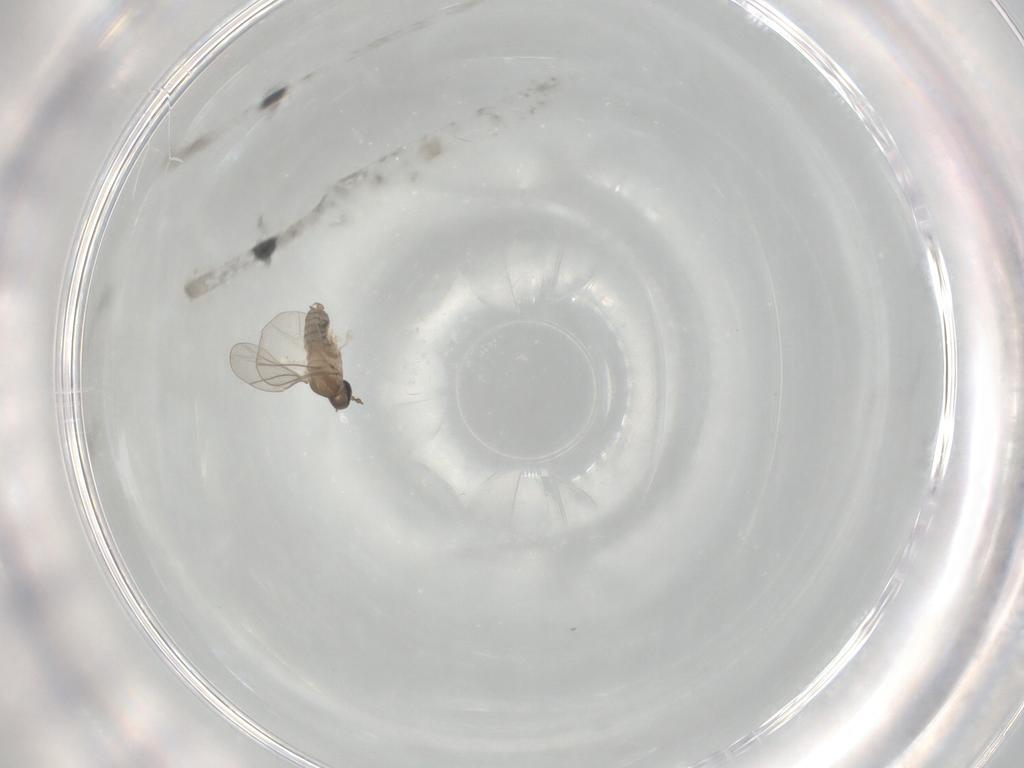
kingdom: Animalia
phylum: Arthropoda
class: Insecta
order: Diptera
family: Cecidomyiidae
